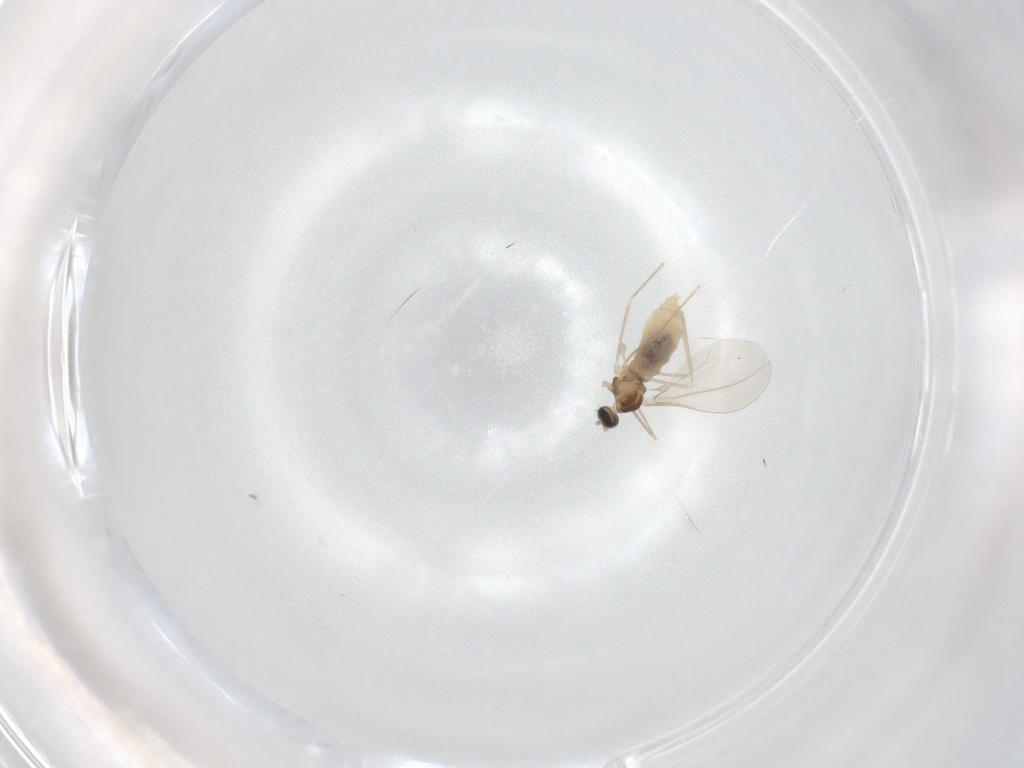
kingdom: Animalia
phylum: Arthropoda
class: Insecta
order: Diptera
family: Cecidomyiidae
